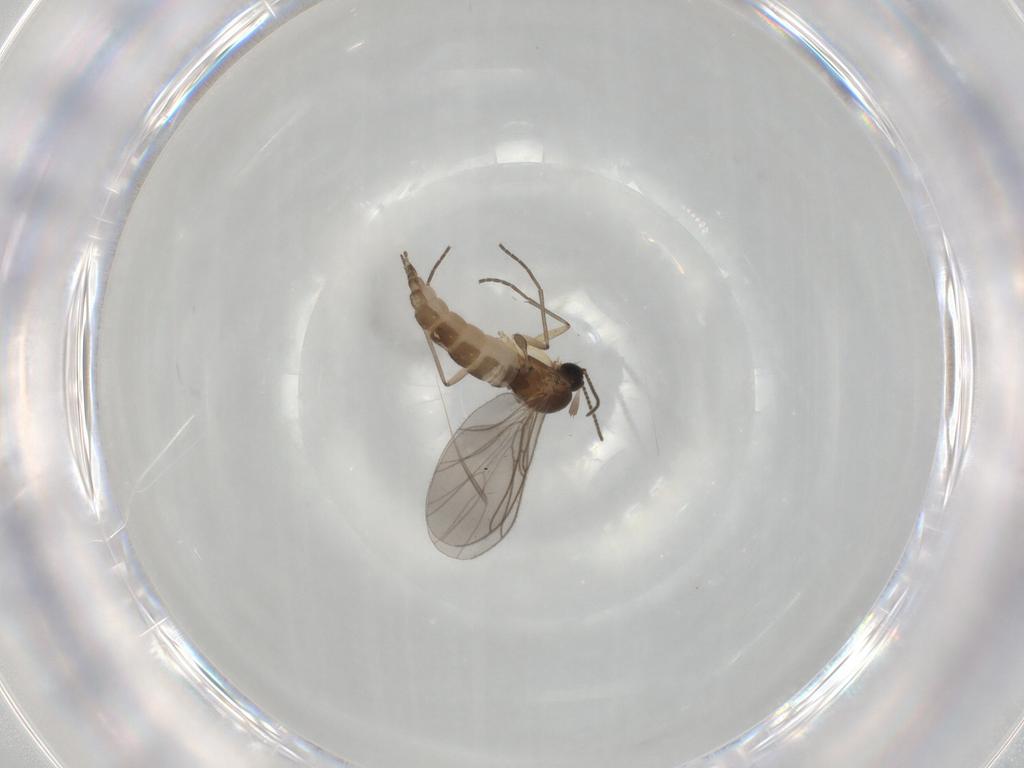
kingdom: Animalia
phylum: Arthropoda
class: Insecta
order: Diptera
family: Sciaridae
